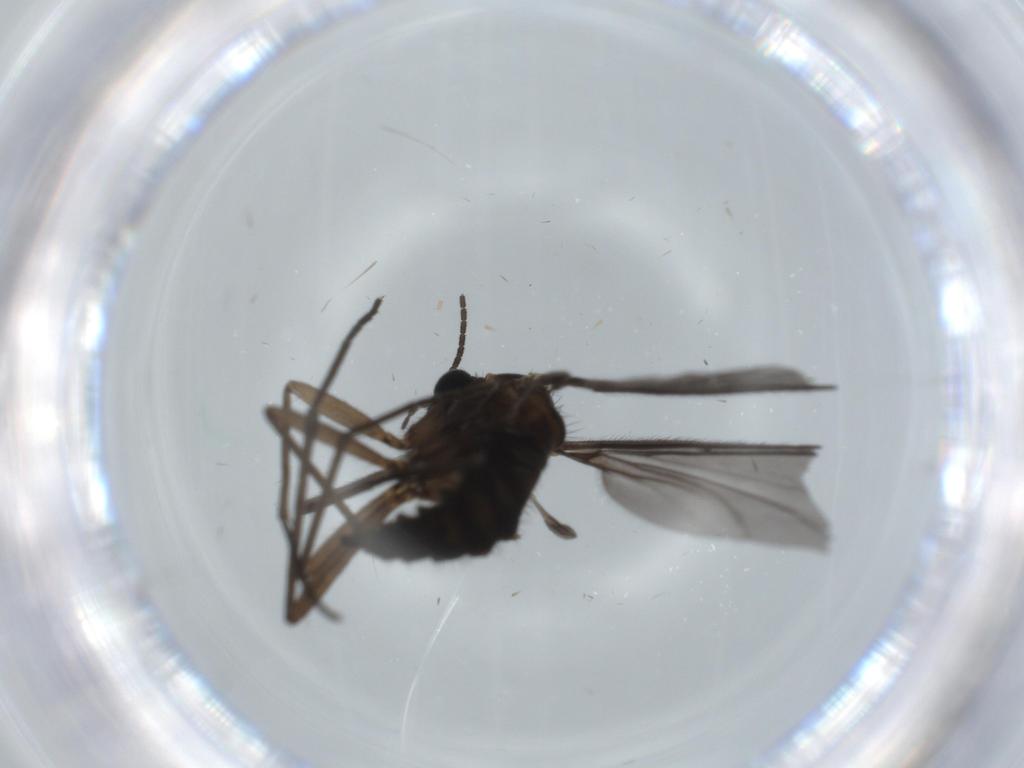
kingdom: Animalia
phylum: Arthropoda
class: Insecta
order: Diptera
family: Sciaridae
